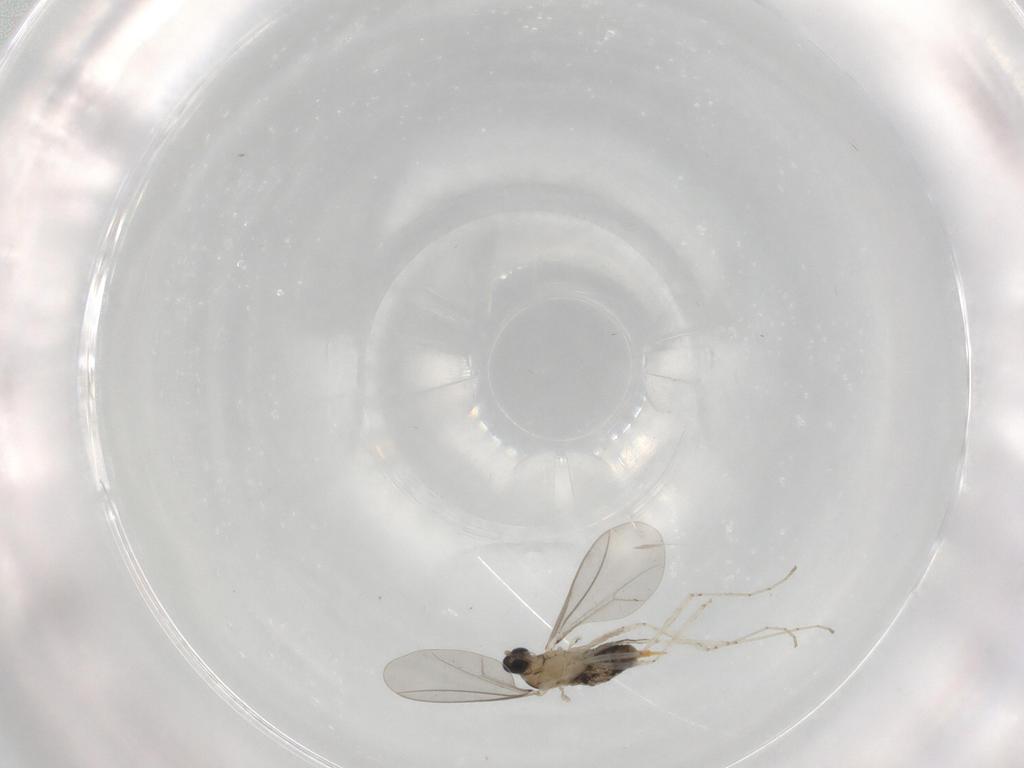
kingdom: Animalia
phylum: Arthropoda
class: Insecta
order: Diptera
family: Cecidomyiidae
